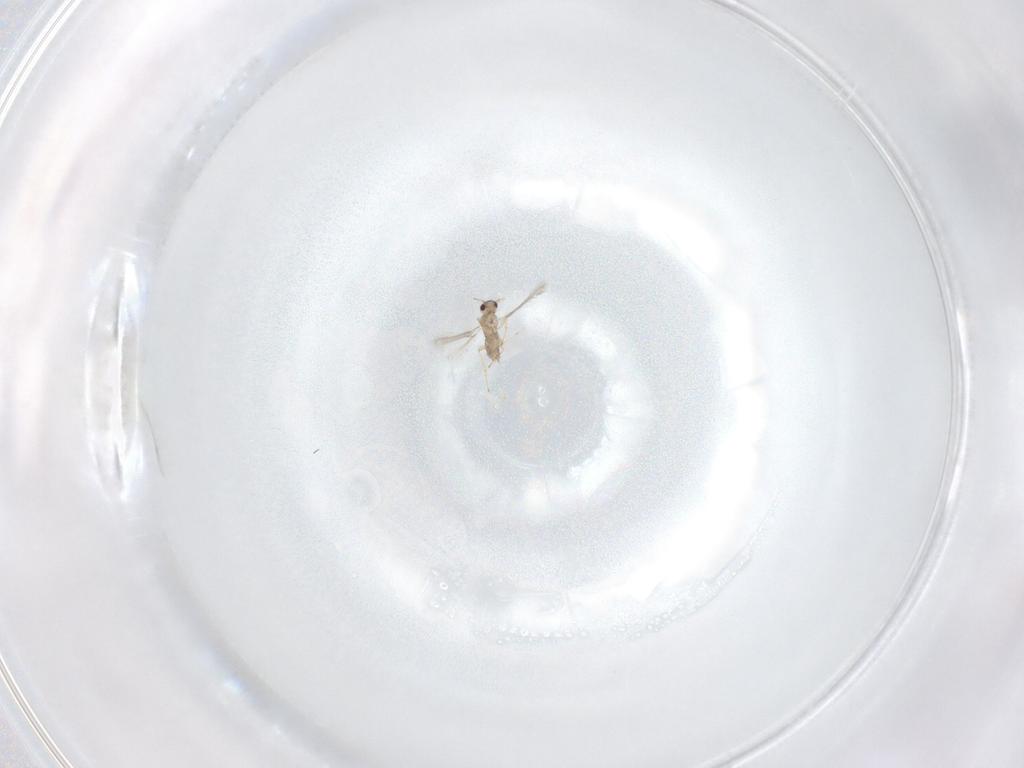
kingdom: Animalia
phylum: Arthropoda
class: Insecta
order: Hymenoptera
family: Mymaridae
